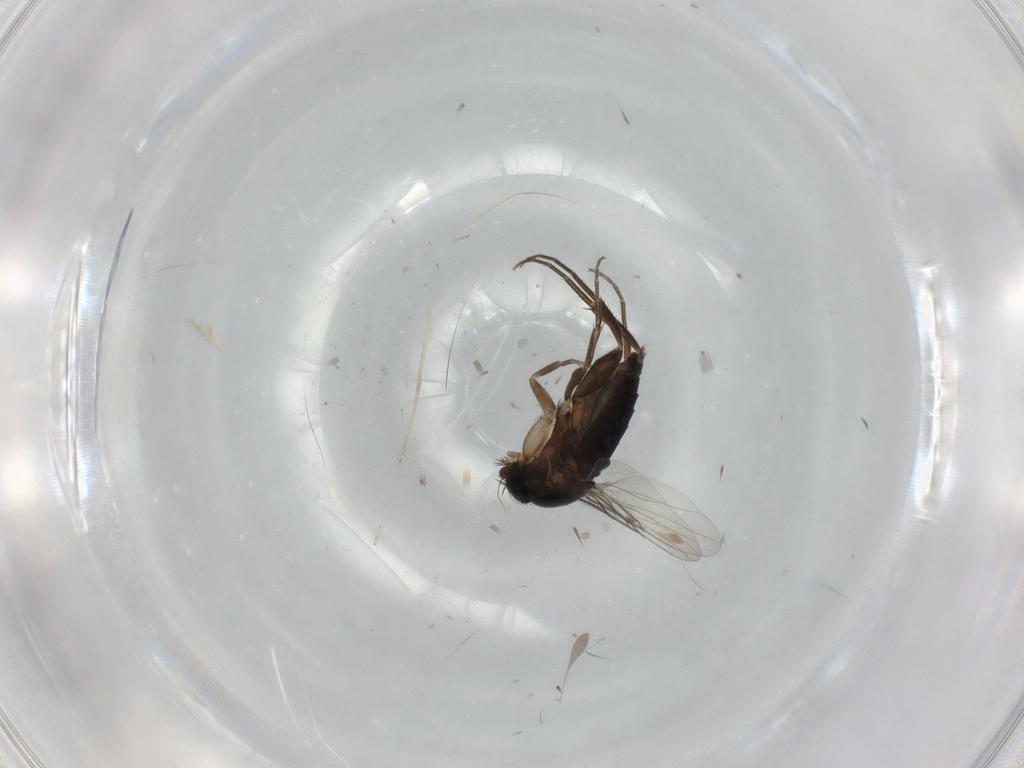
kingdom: Animalia
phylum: Arthropoda
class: Insecta
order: Diptera
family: Phoridae
